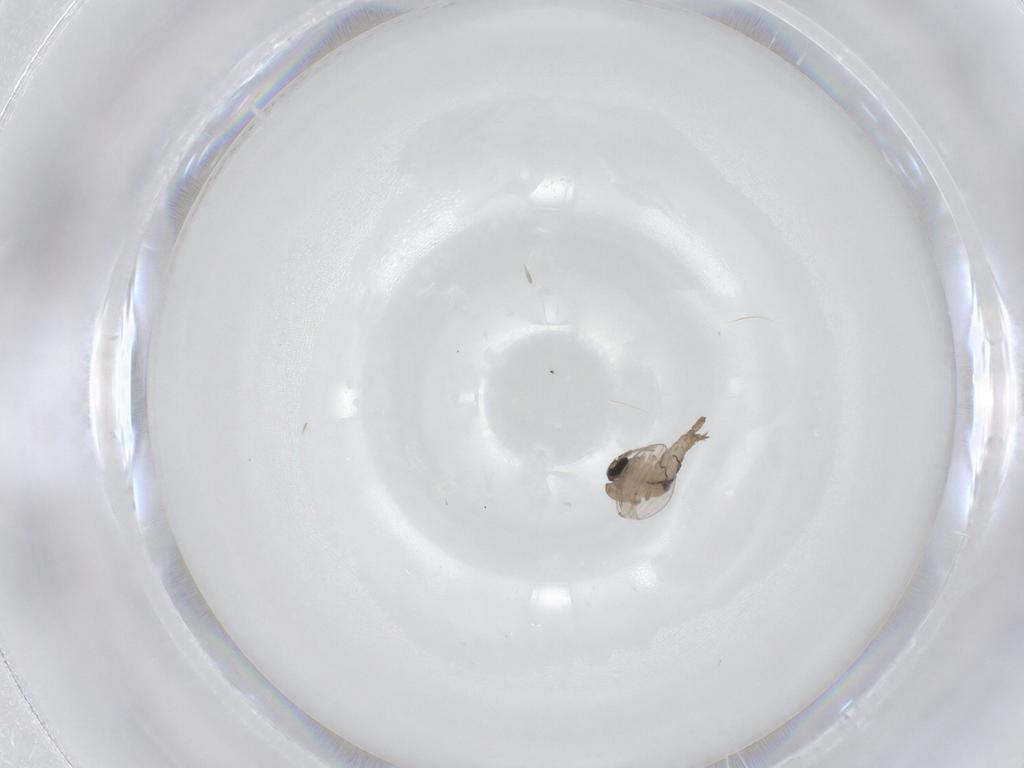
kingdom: Animalia
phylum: Arthropoda
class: Insecta
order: Diptera
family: Psychodidae
